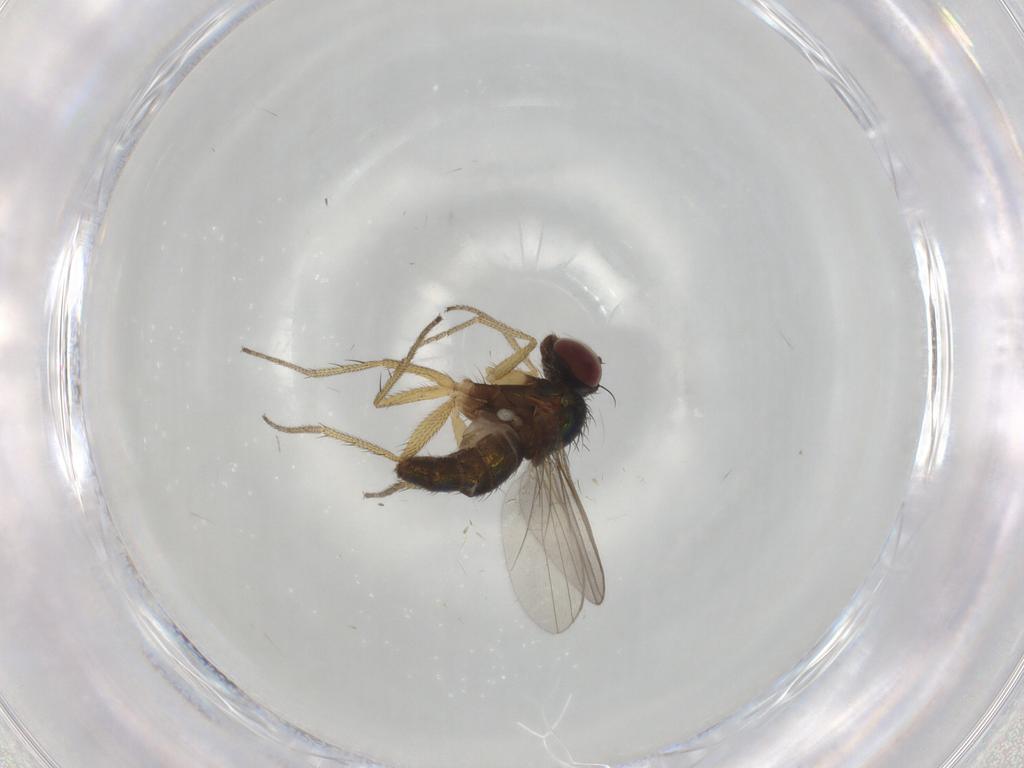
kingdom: Animalia
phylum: Arthropoda
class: Insecta
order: Diptera
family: Dolichopodidae
